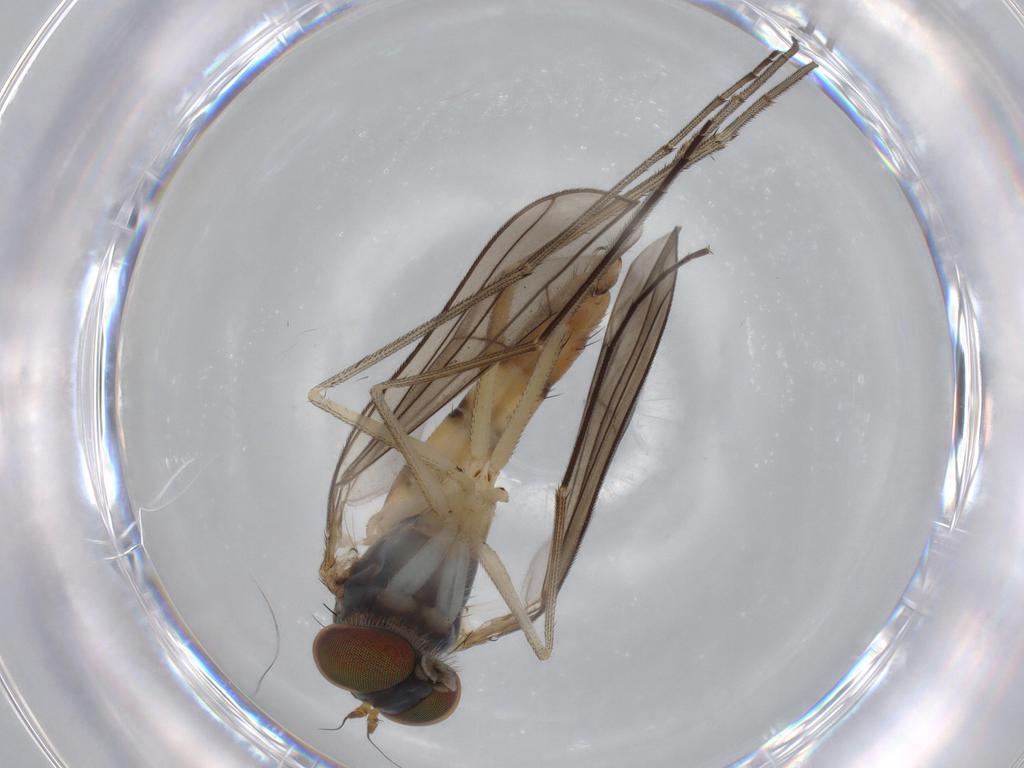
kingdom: Animalia
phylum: Arthropoda
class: Insecta
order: Diptera
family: Dolichopodidae
